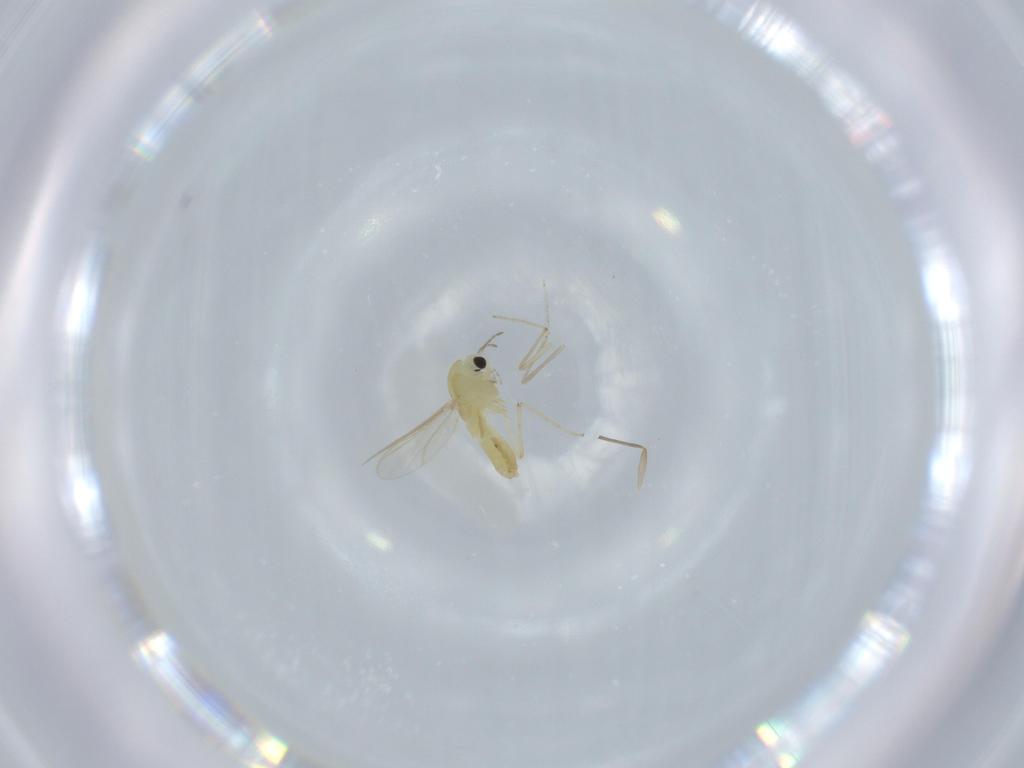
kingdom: Animalia
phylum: Arthropoda
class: Insecta
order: Diptera
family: Chironomidae
